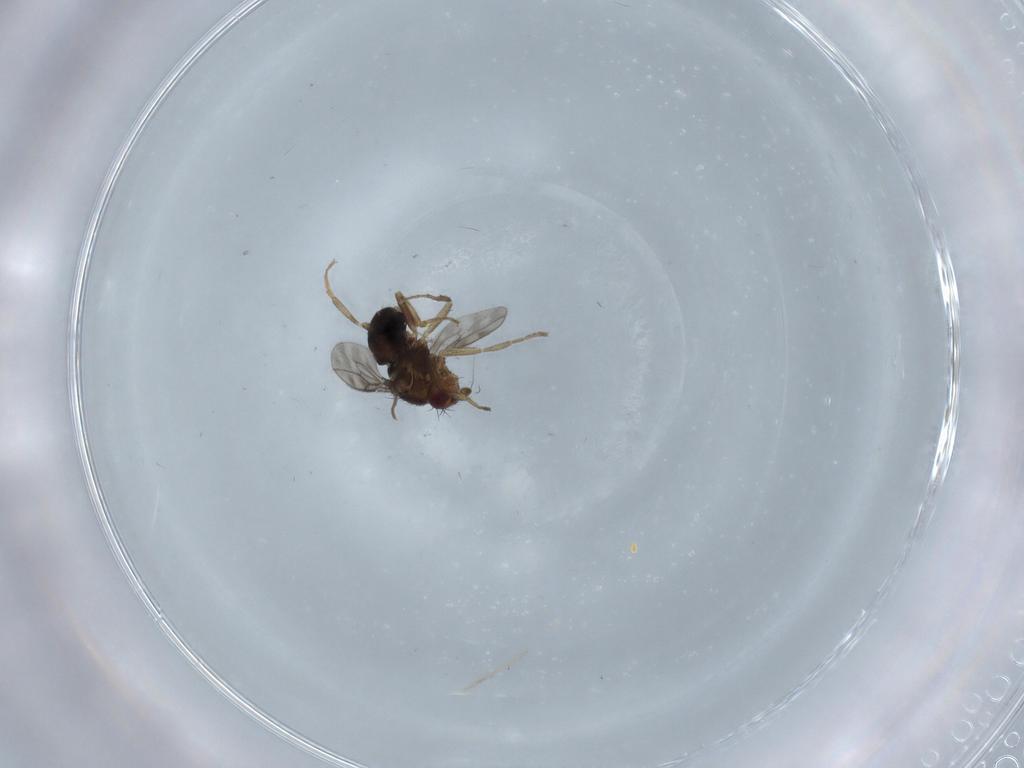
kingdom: Animalia
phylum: Arthropoda
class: Insecta
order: Diptera
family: Sphaeroceridae
